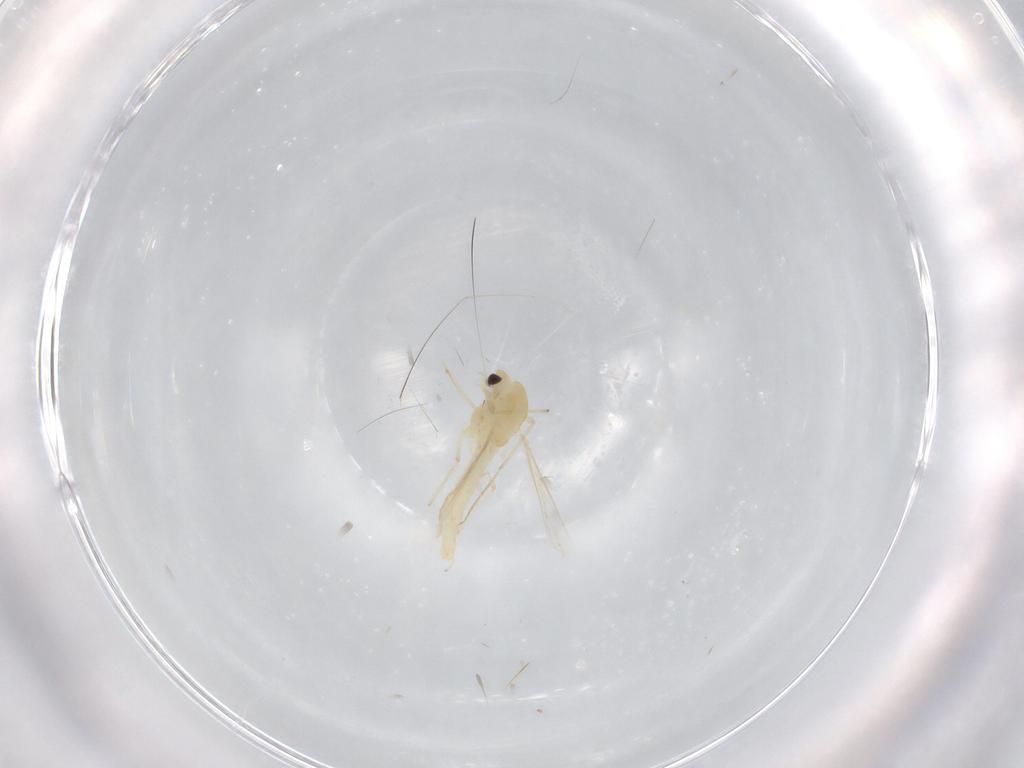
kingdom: Animalia
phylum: Arthropoda
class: Insecta
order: Diptera
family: Chironomidae
